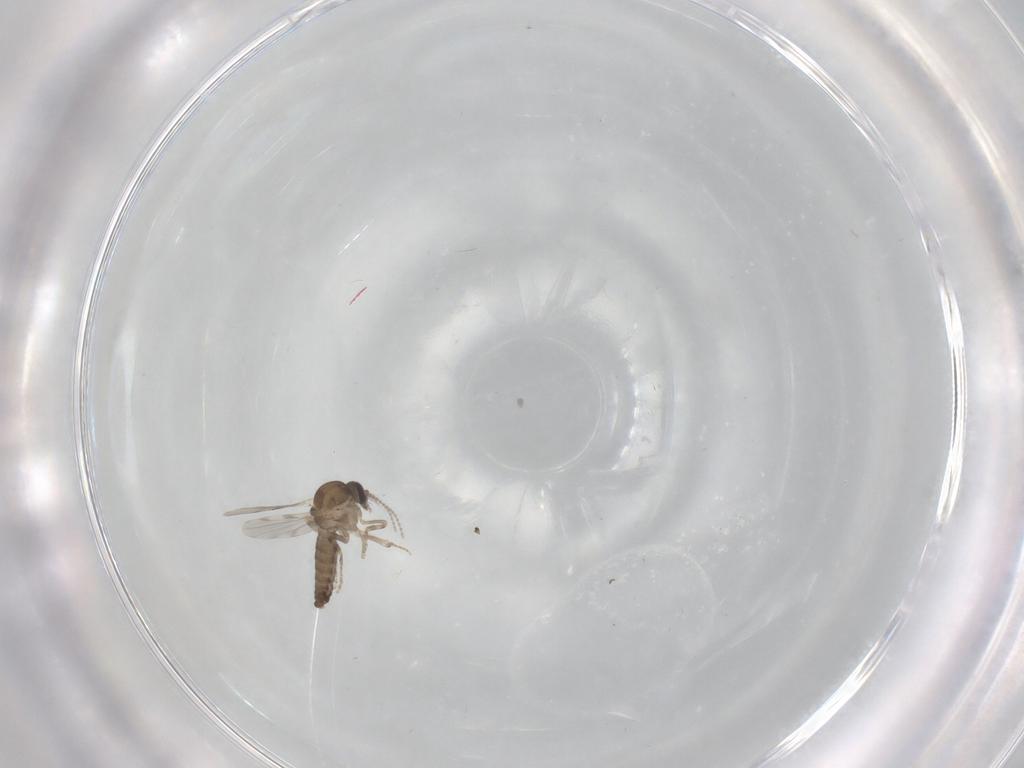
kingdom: Animalia
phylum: Arthropoda
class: Insecta
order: Diptera
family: Ceratopogonidae
